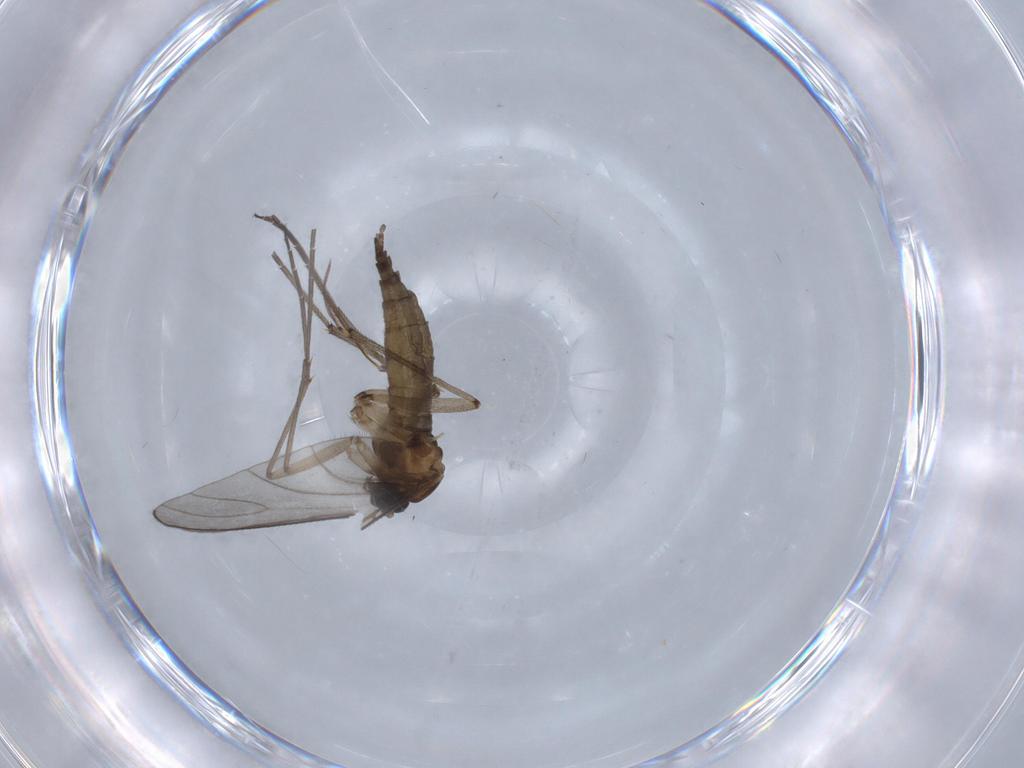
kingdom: Animalia
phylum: Arthropoda
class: Insecta
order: Diptera
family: Sciaridae
